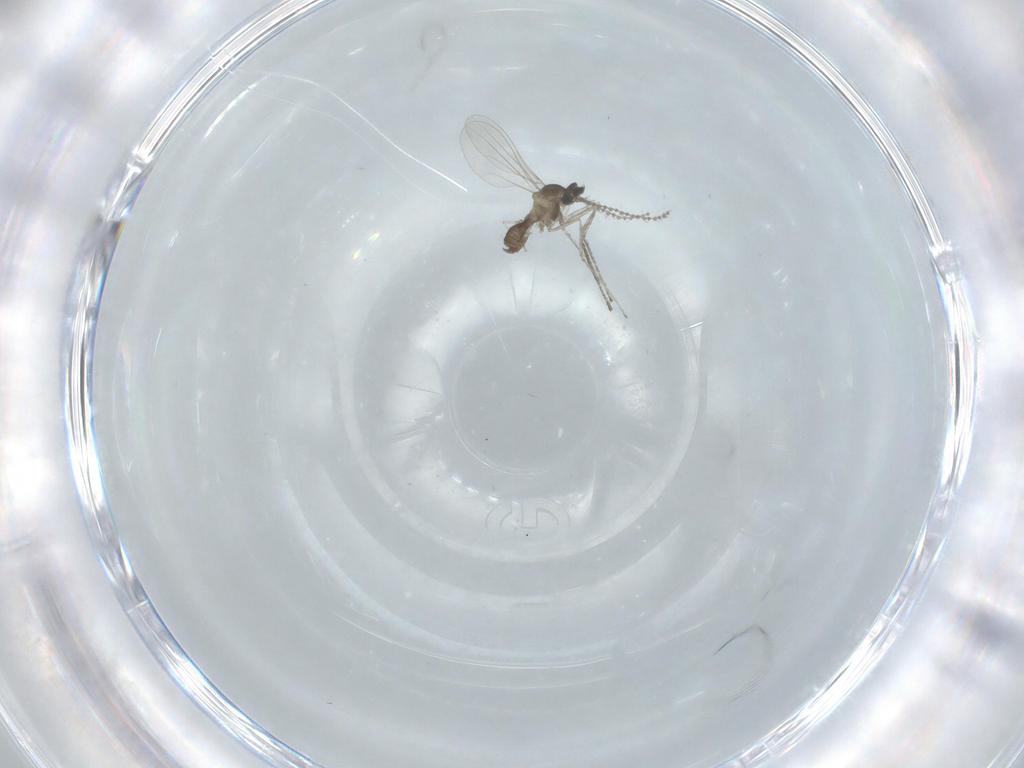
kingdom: Animalia
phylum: Arthropoda
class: Insecta
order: Diptera
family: Cecidomyiidae
